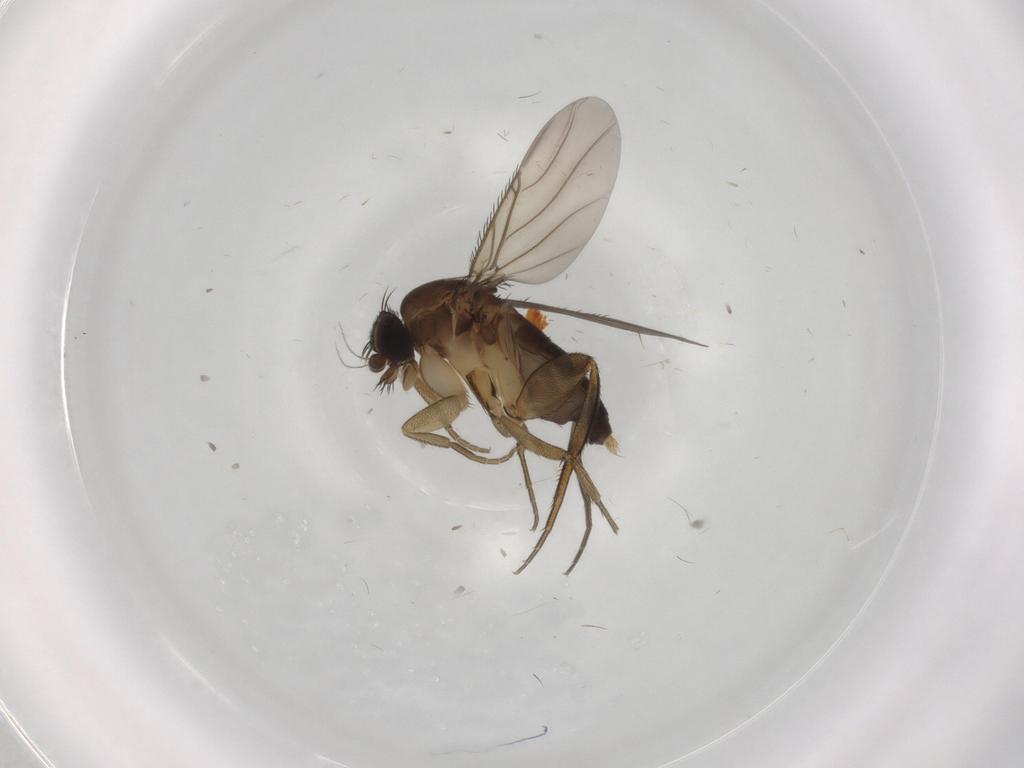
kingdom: Animalia
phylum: Arthropoda
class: Insecta
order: Diptera
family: Phoridae
